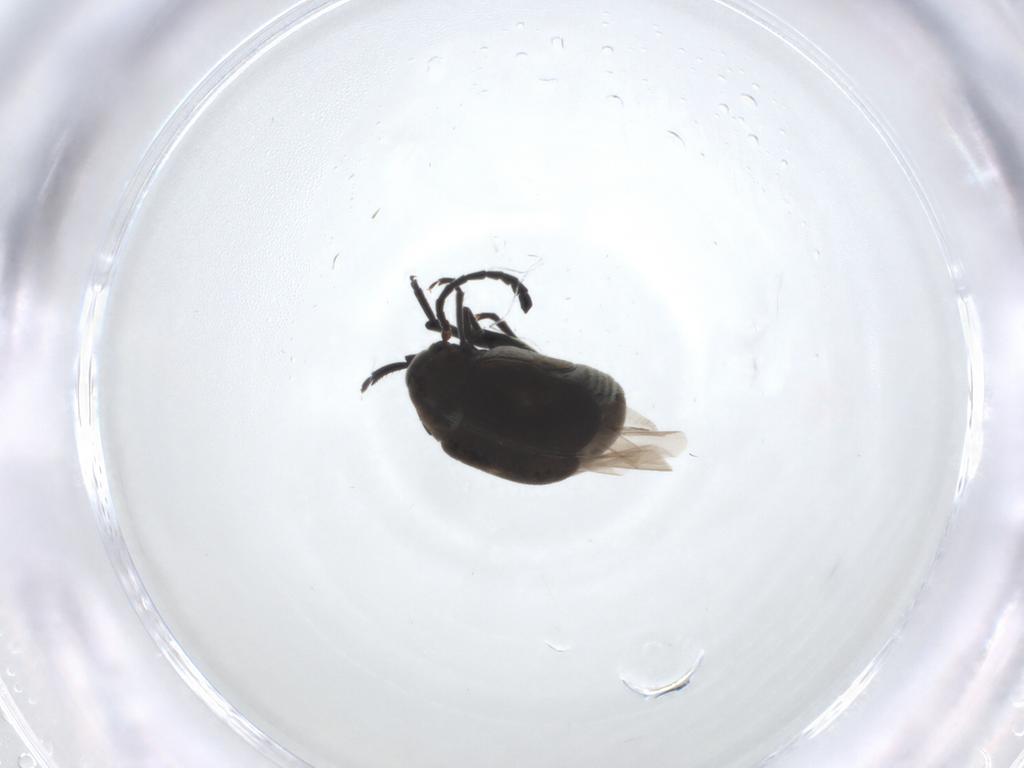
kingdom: Animalia
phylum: Arthropoda
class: Insecta
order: Coleoptera
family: Chrysomelidae
